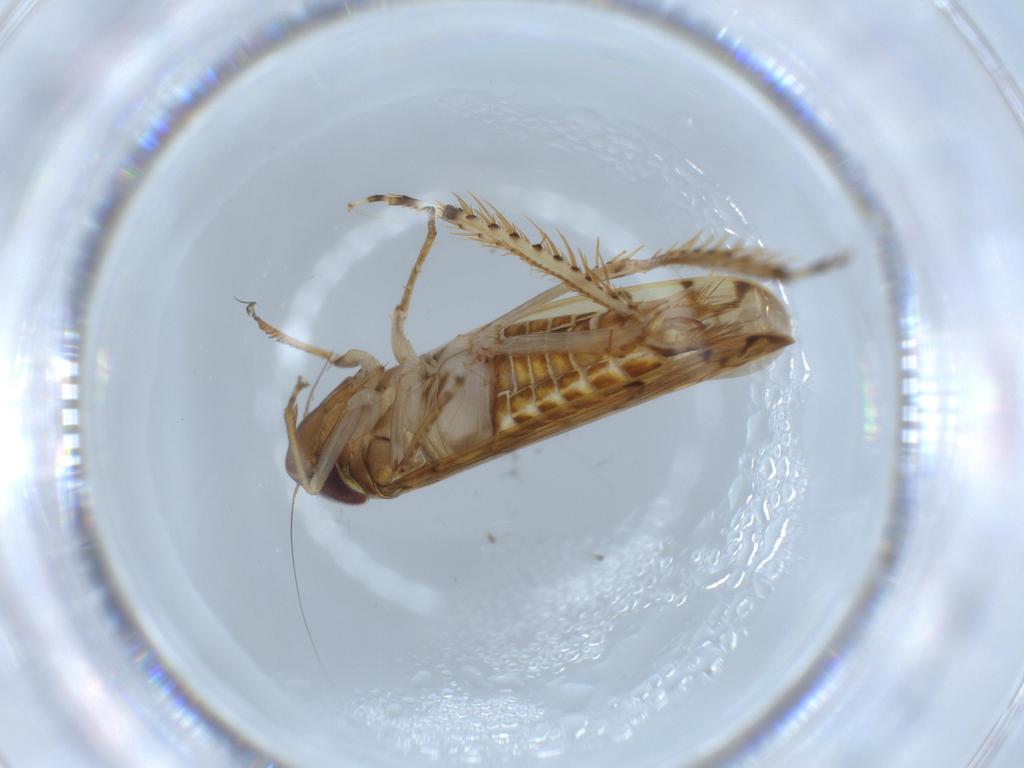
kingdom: Animalia
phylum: Arthropoda
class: Insecta
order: Hemiptera
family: Cicadellidae
